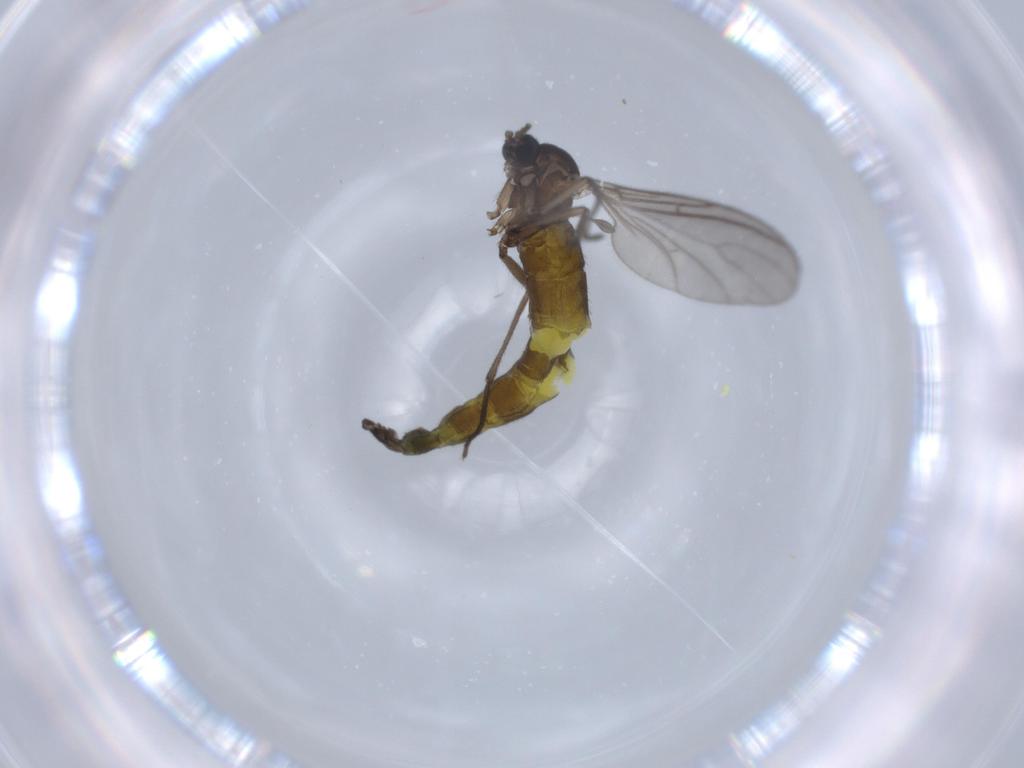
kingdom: Animalia
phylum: Arthropoda
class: Insecta
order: Diptera
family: Sciaridae
